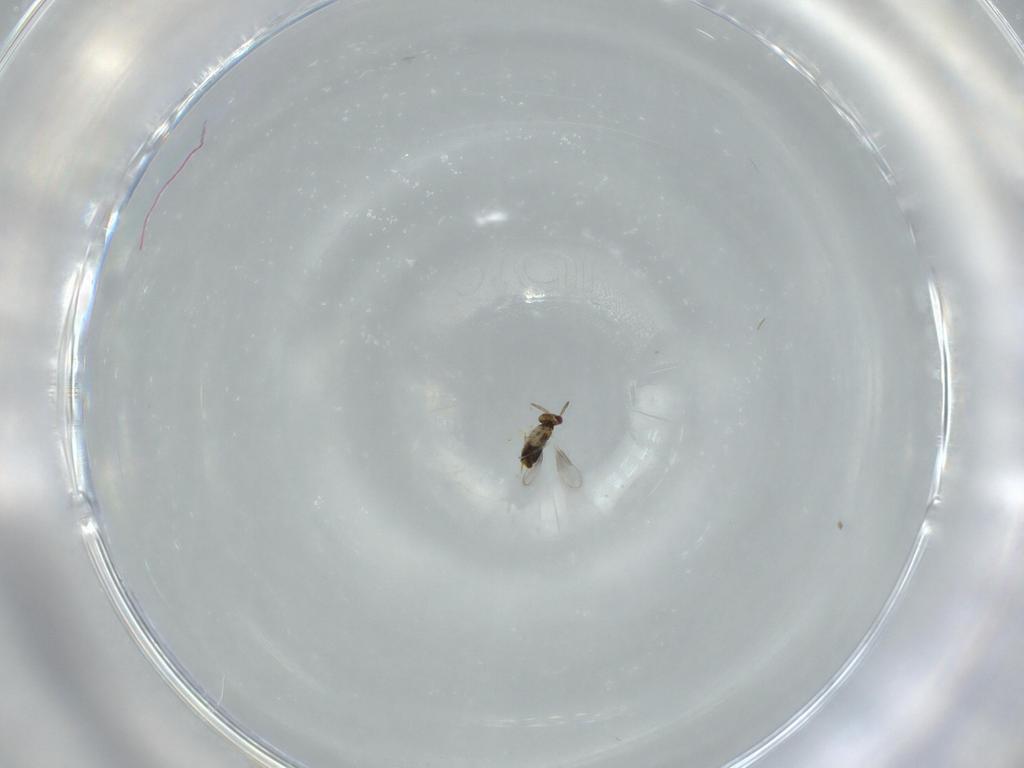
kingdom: Animalia
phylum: Arthropoda
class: Insecta
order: Hymenoptera
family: Aphelinidae
